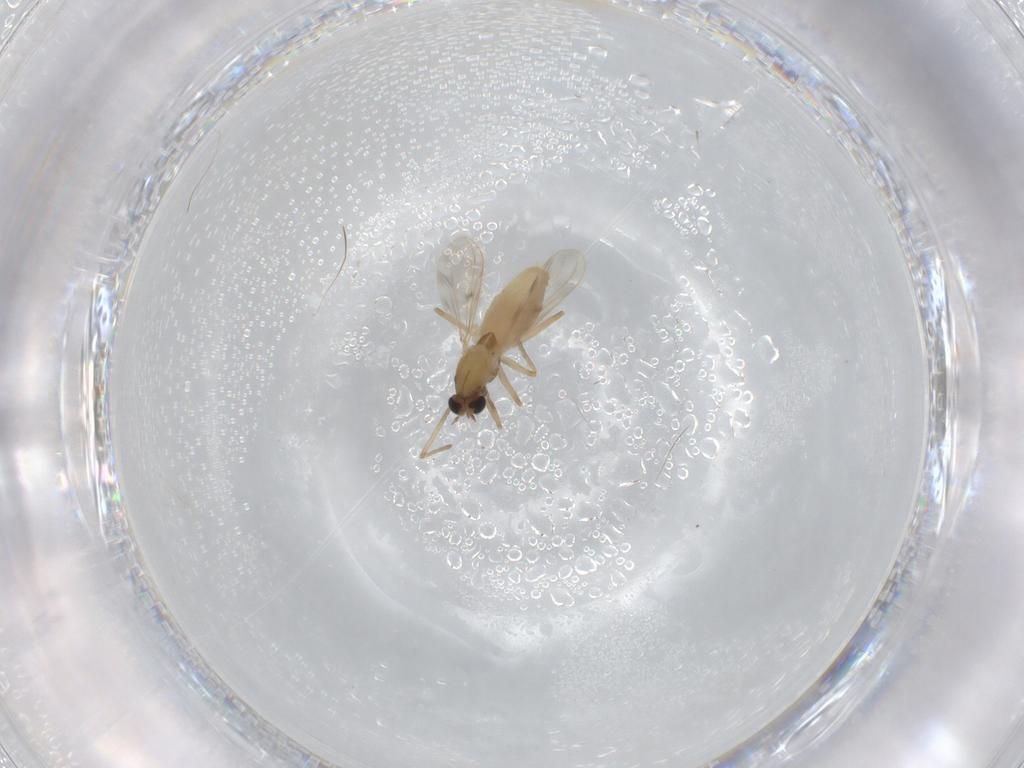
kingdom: Animalia
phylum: Arthropoda
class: Insecta
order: Diptera
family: Chironomidae
